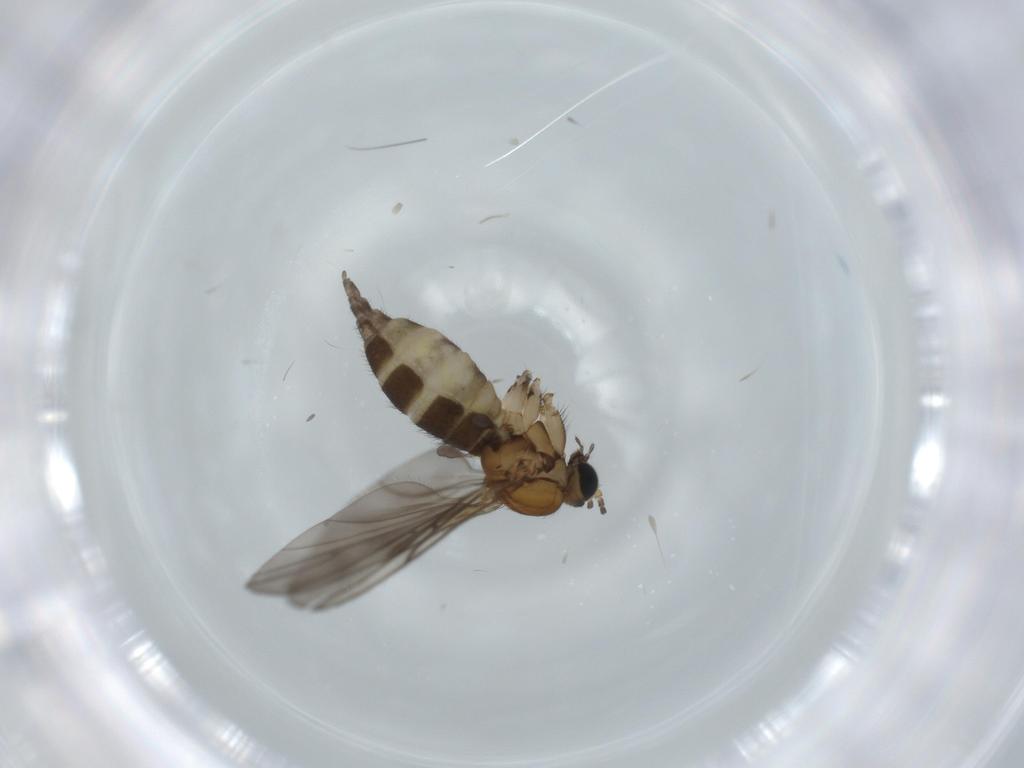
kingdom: Animalia
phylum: Arthropoda
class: Insecta
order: Diptera
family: Sciaridae
